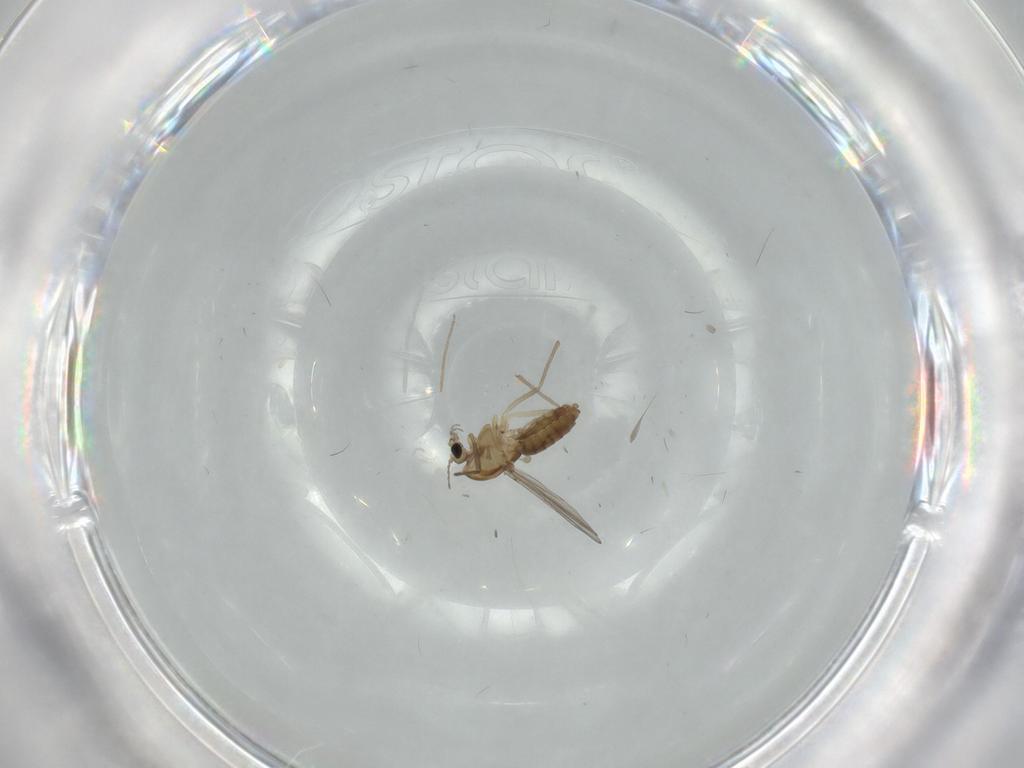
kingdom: Animalia
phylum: Arthropoda
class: Insecta
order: Diptera
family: Ceratopogonidae
